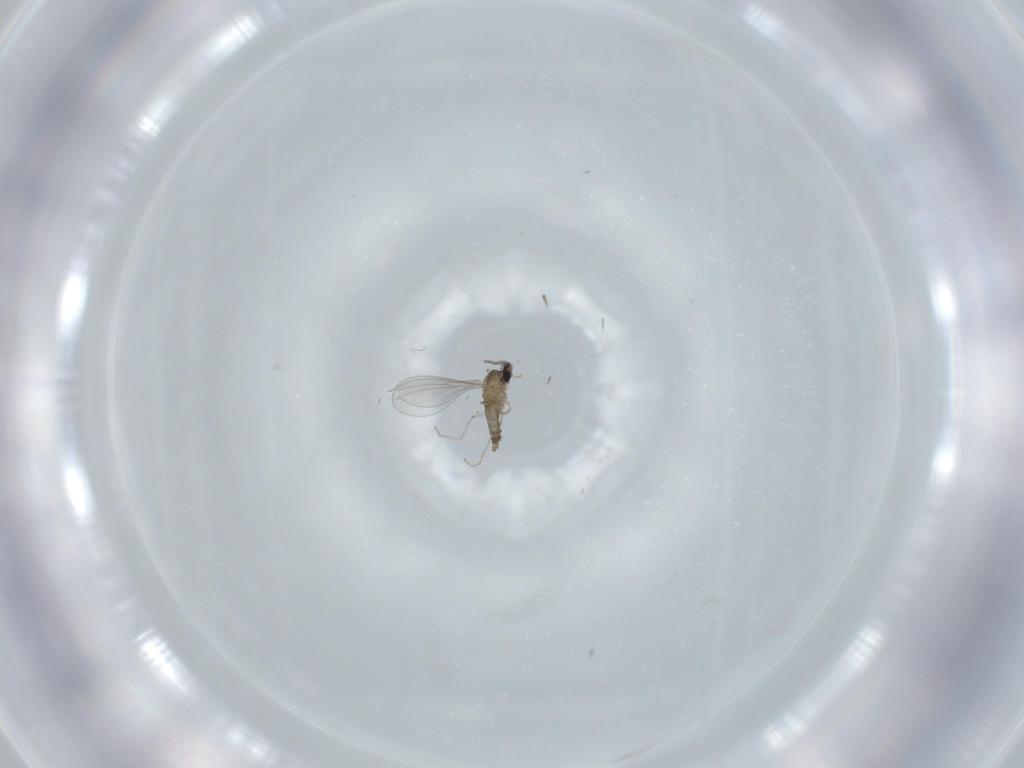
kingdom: Animalia
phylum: Arthropoda
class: Insecta
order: Diptera
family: Cecidomyiidae
